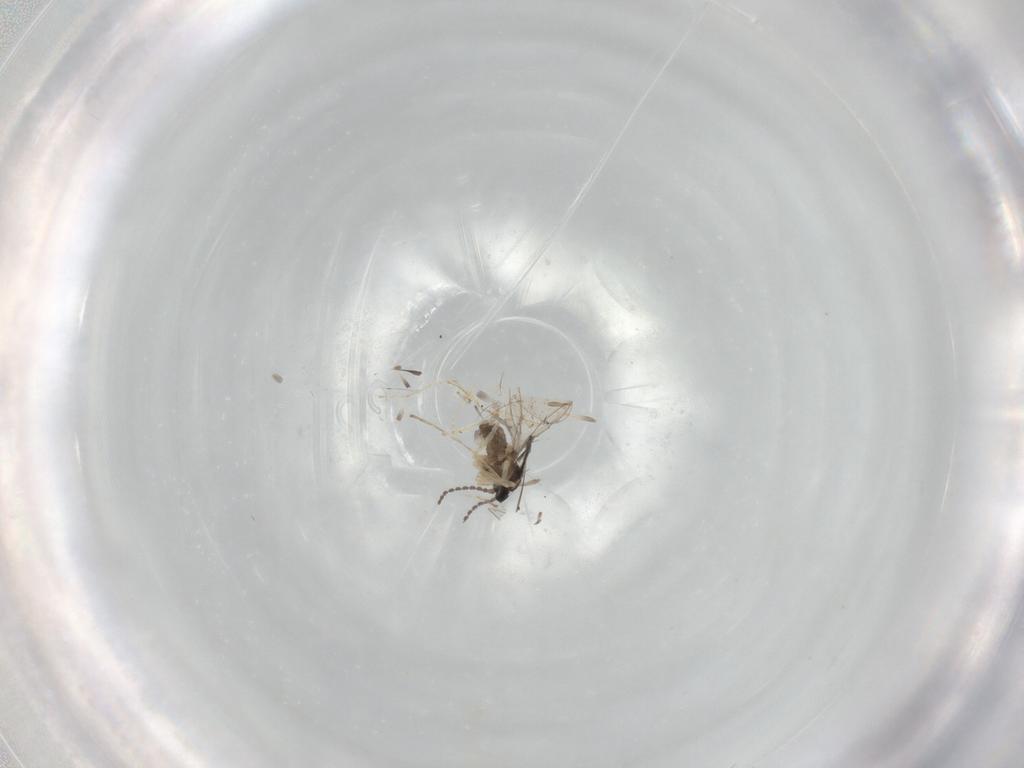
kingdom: Animalia
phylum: Arthropoda
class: Insecta
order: Diptera
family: Cecidomyiidae
